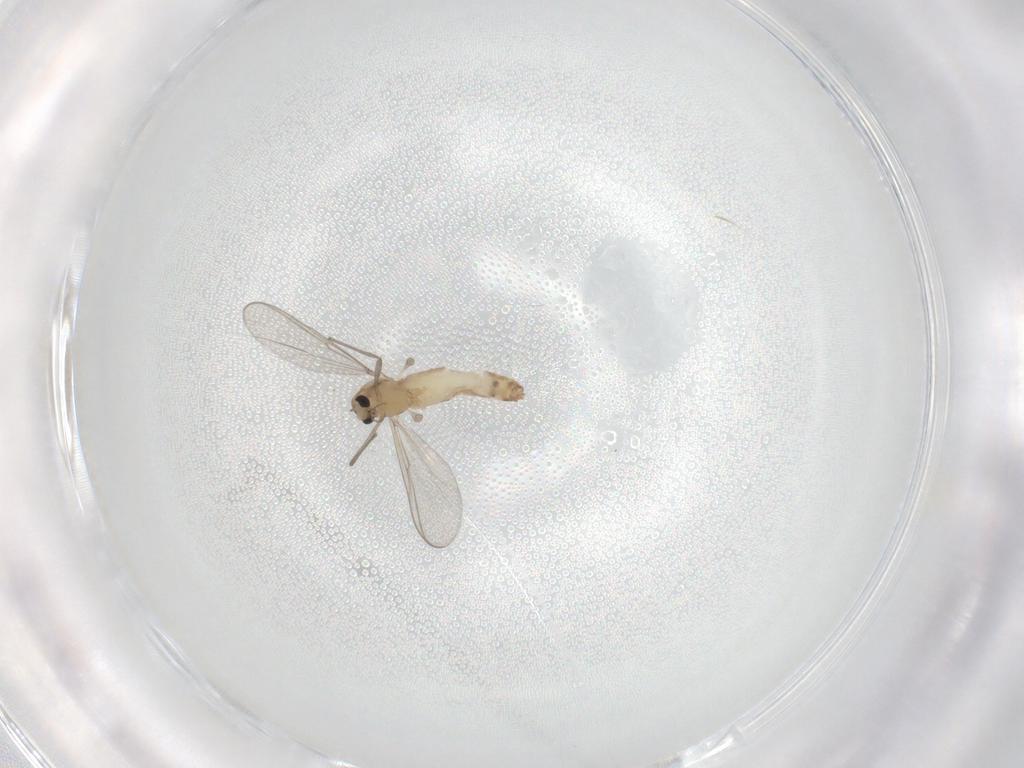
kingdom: Animalia
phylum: Arthropoda
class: Insecta
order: Diptera
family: Chironomidae
